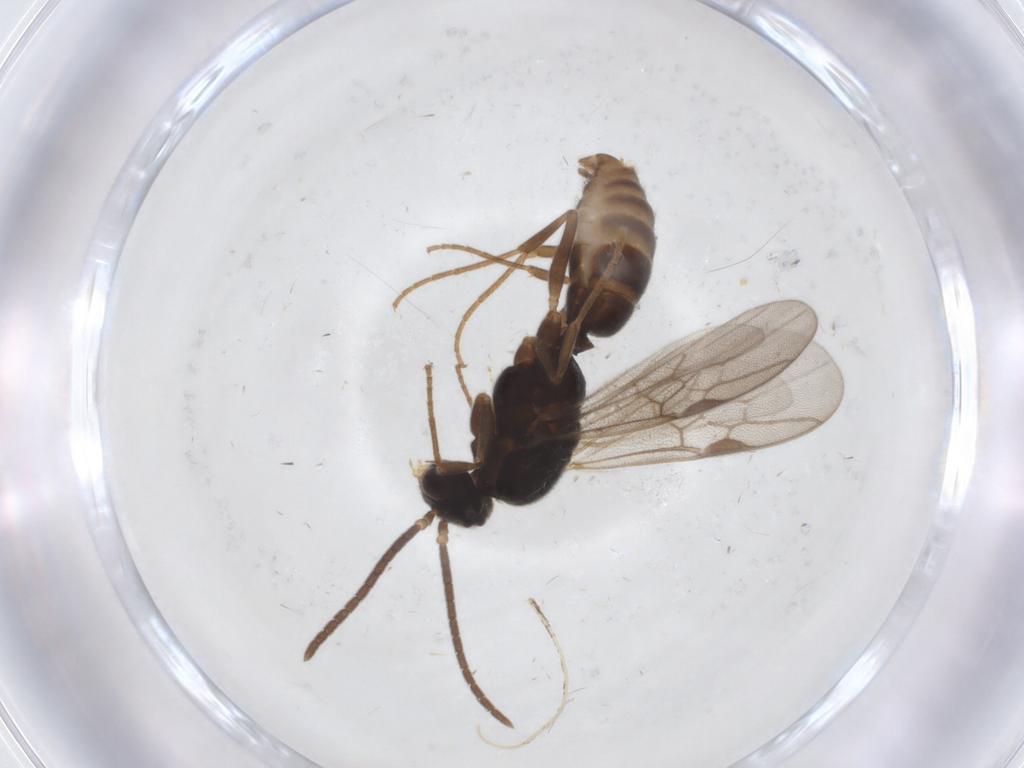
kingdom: Animalia
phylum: Arthropoda
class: Insecta
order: Hymenoptera
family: Formicidae
